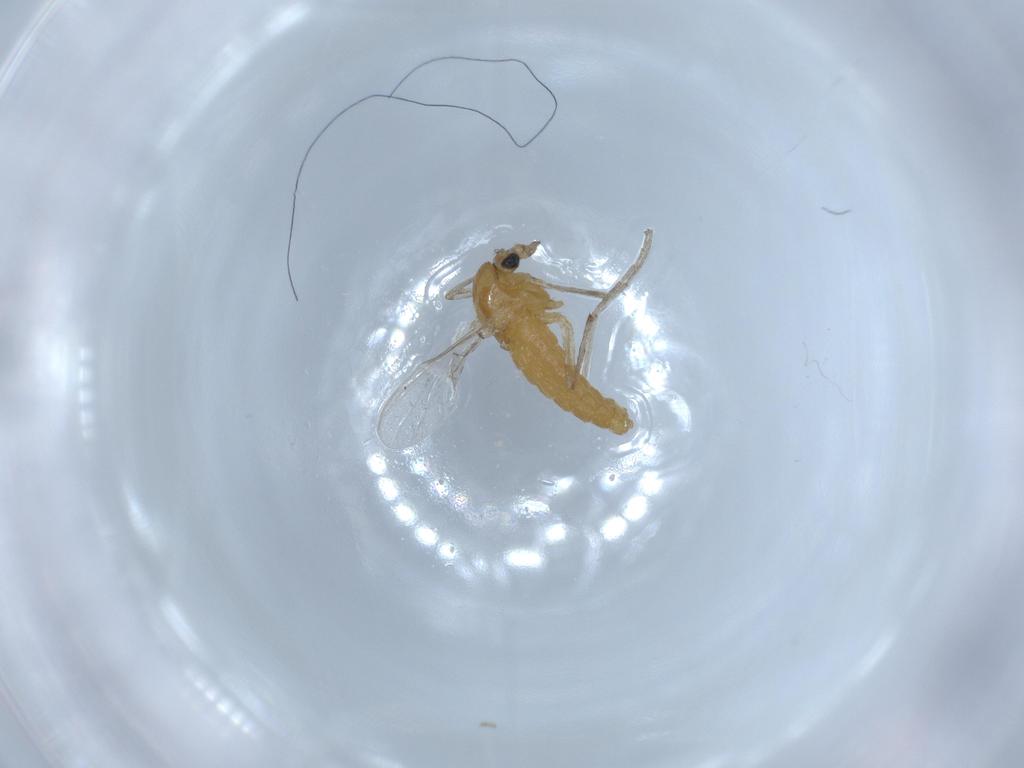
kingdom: Animalia
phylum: Arthropoda
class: Insecta
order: Diptera
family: Chironomidae
